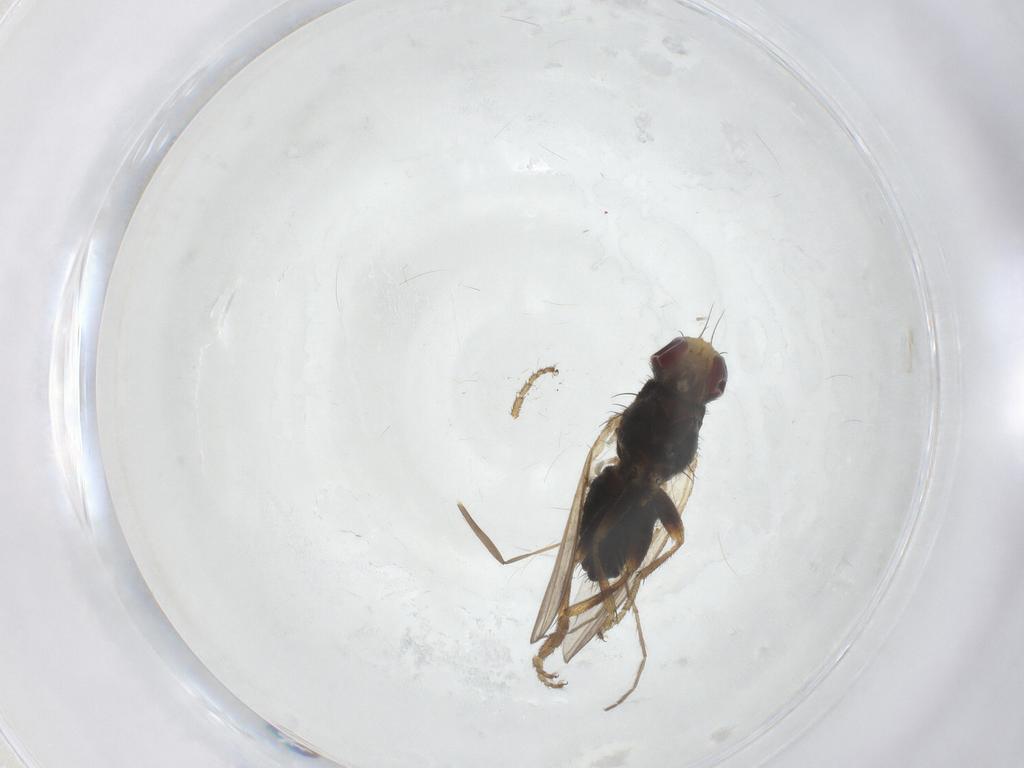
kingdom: Animalia
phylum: Arthropoda
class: Insecta
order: Diptera
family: Heleomyzidae
